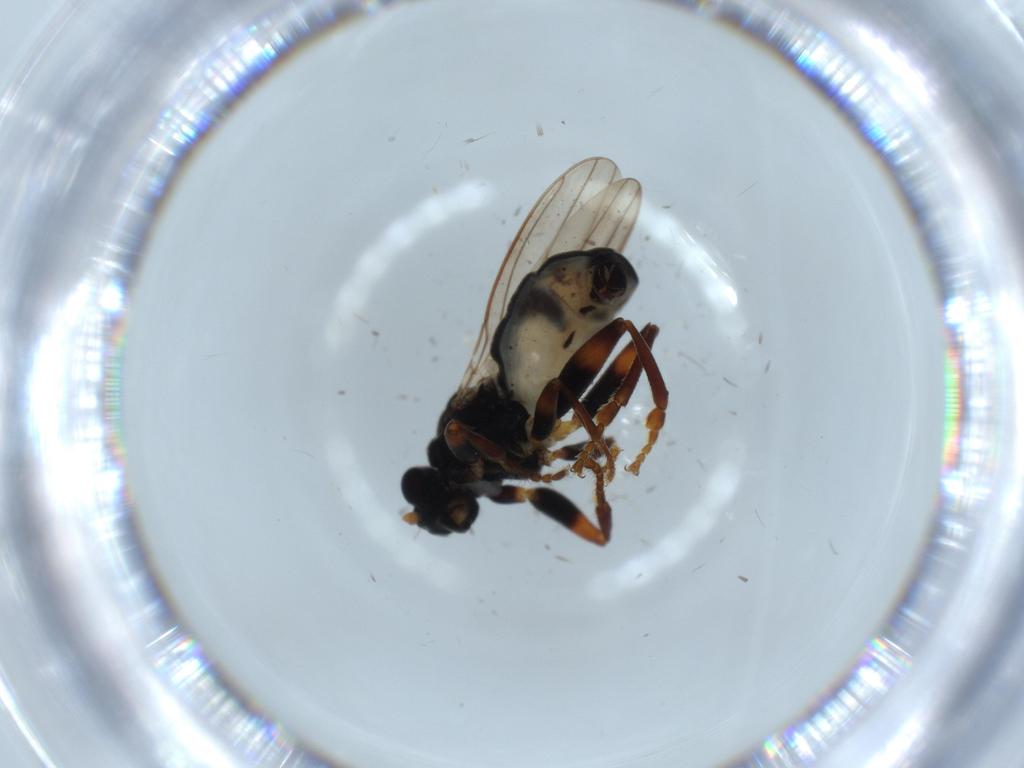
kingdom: Animalia
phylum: Arthropoda
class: Insecta
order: Diptera
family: Sphaeroceridae
